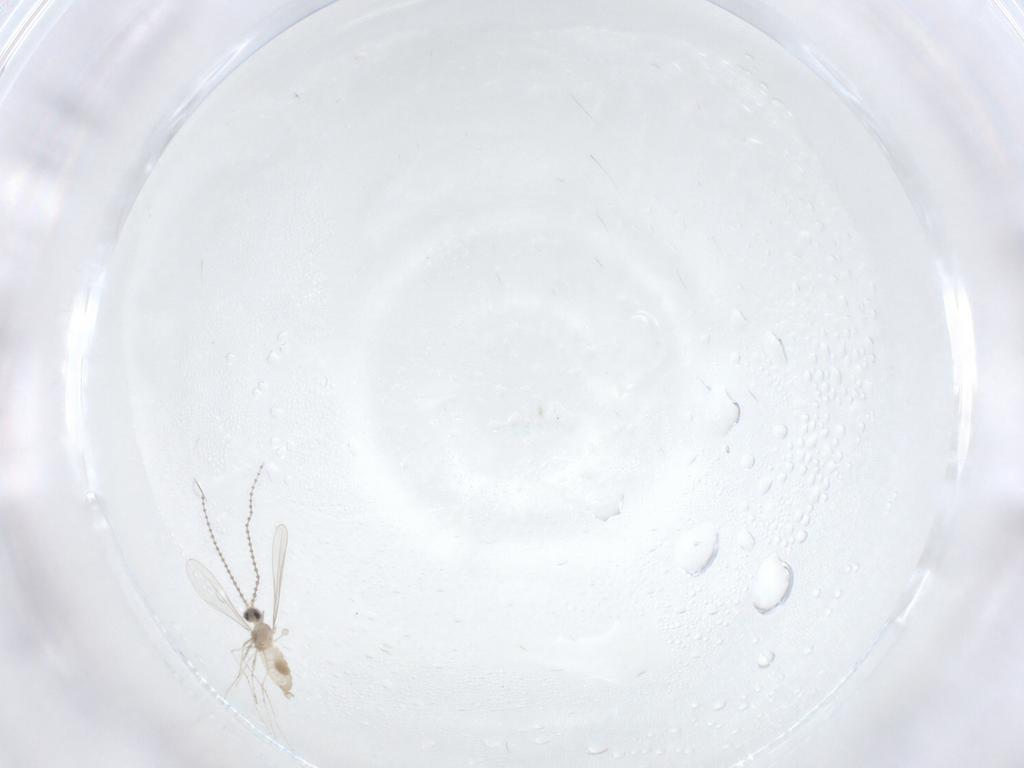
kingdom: Animalia
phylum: Arthropoda
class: Insecta
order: Diptera
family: Cecidomyiidae
